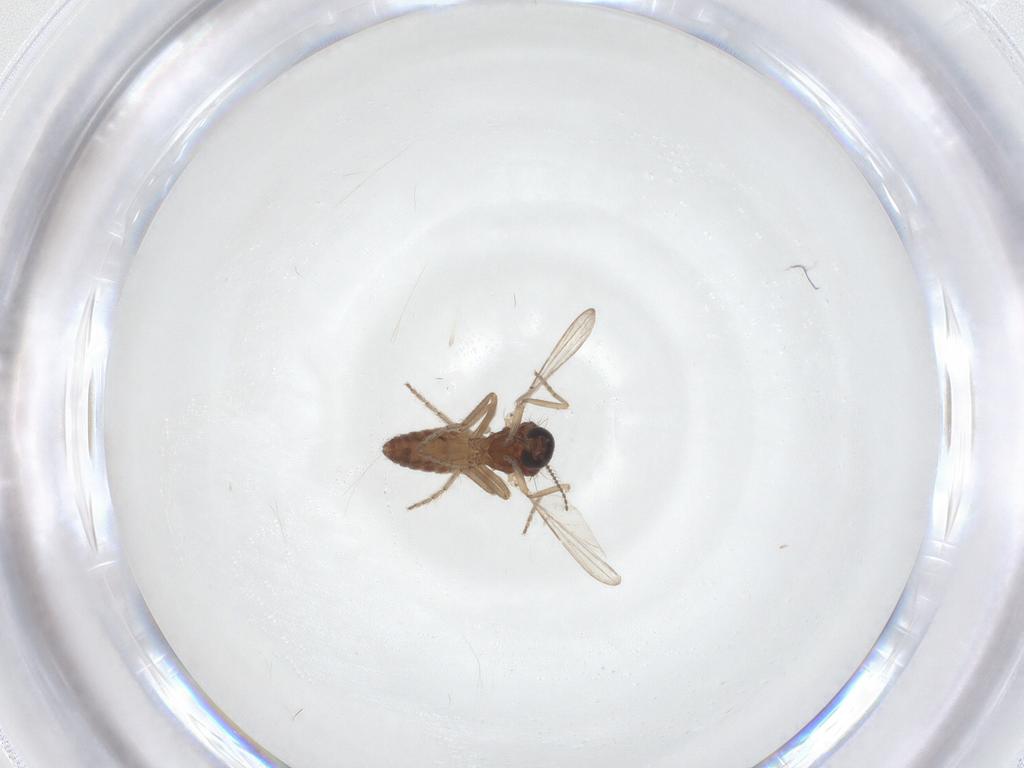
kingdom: Animalia
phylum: Arthropoda
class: Insecta
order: Diptera
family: Ceratopogonidae
